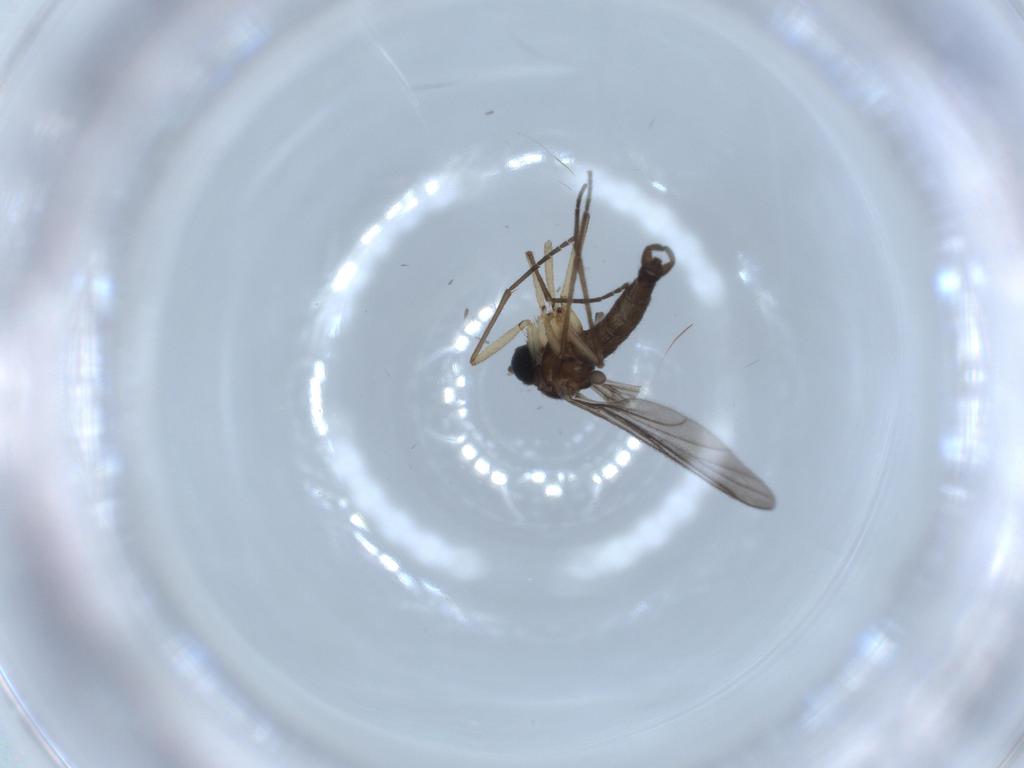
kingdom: Animalia
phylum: Arthropoda
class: Insecta
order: Diptera
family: Sciaridae
